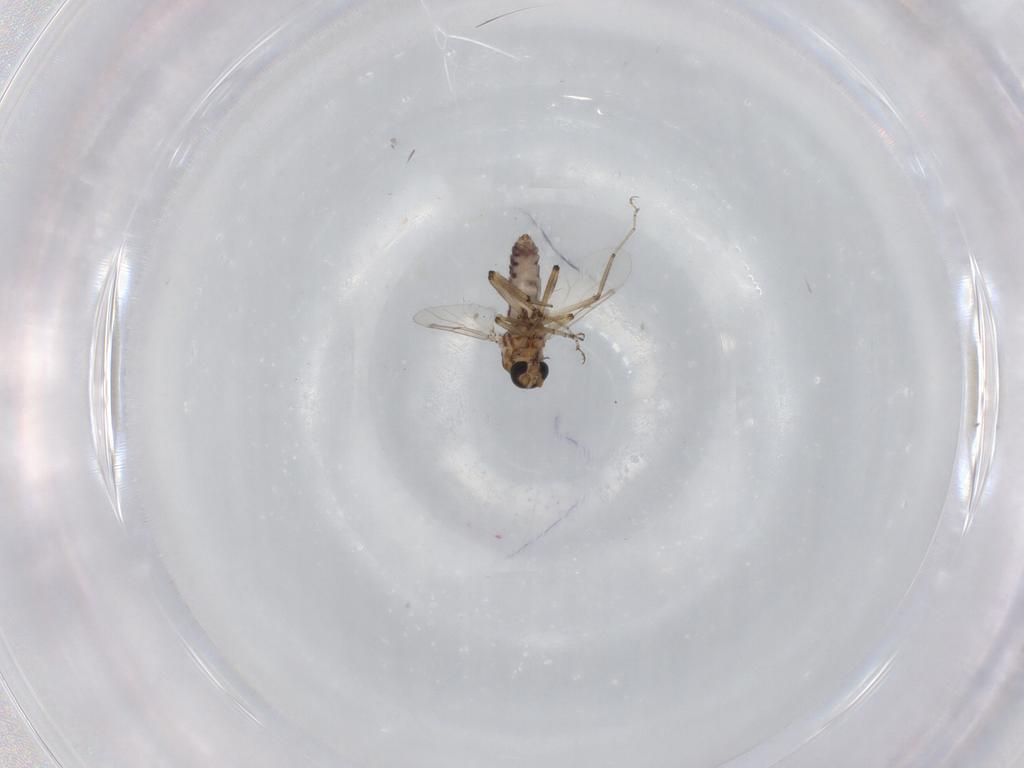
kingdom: Animalia
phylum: Arthropoda
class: Insecta
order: Diptera
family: Ceratopogonidae
